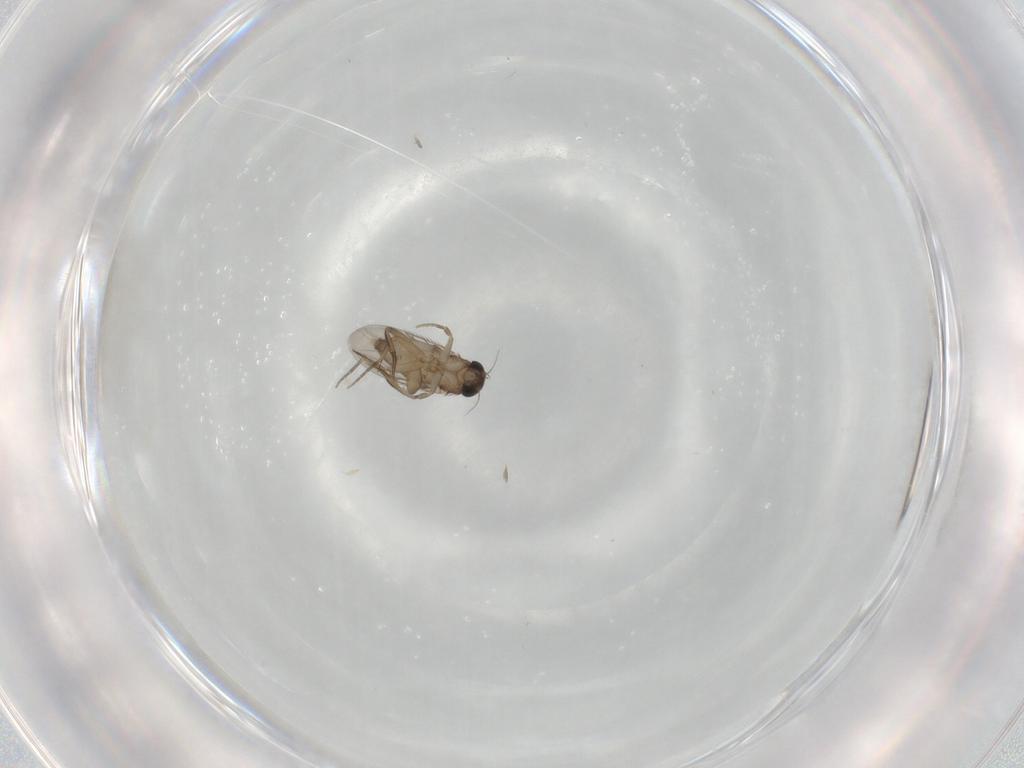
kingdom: Animalia
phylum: Arthropoda
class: Insecta
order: Diptera
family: Phoridae
